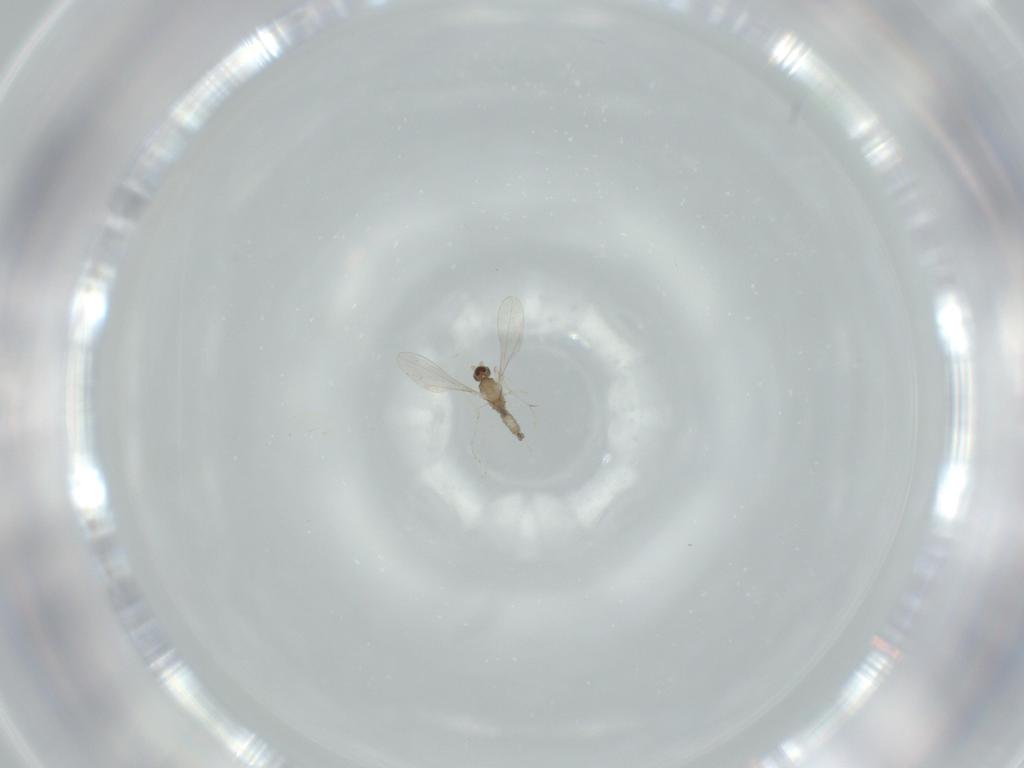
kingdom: Animalia
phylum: Arthropoda
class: Insecta
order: Diptera
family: Cecidomyiidae
